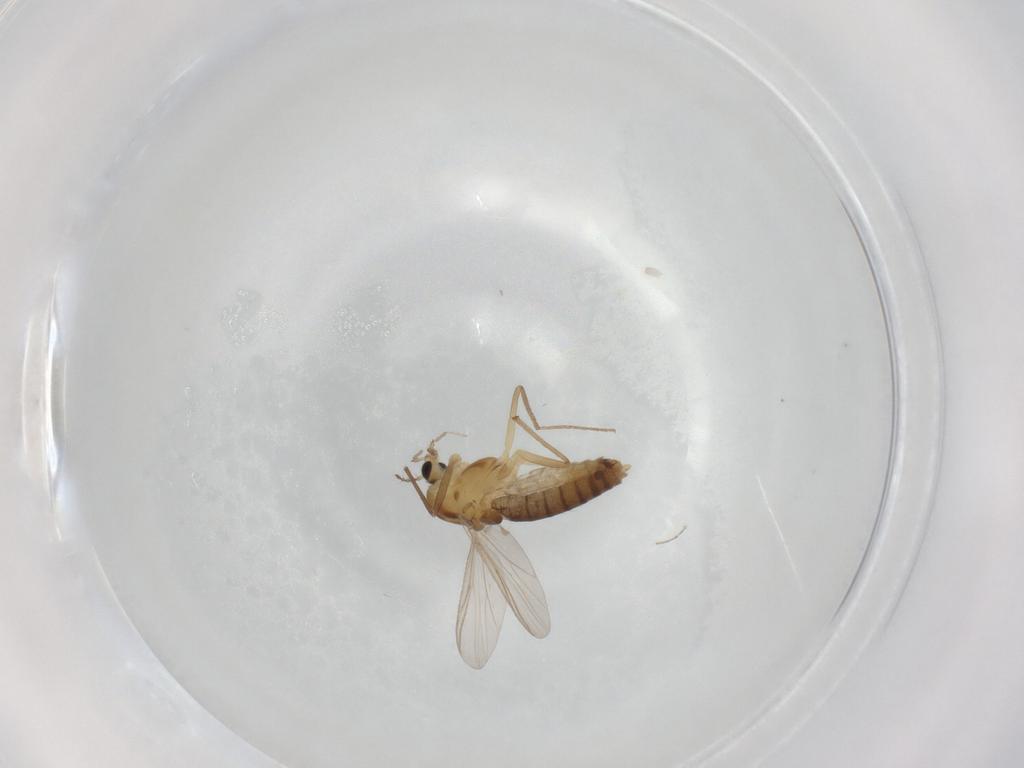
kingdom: Animalia
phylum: Arthropoda
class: Insecta
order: Diptera
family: Chironomidae
